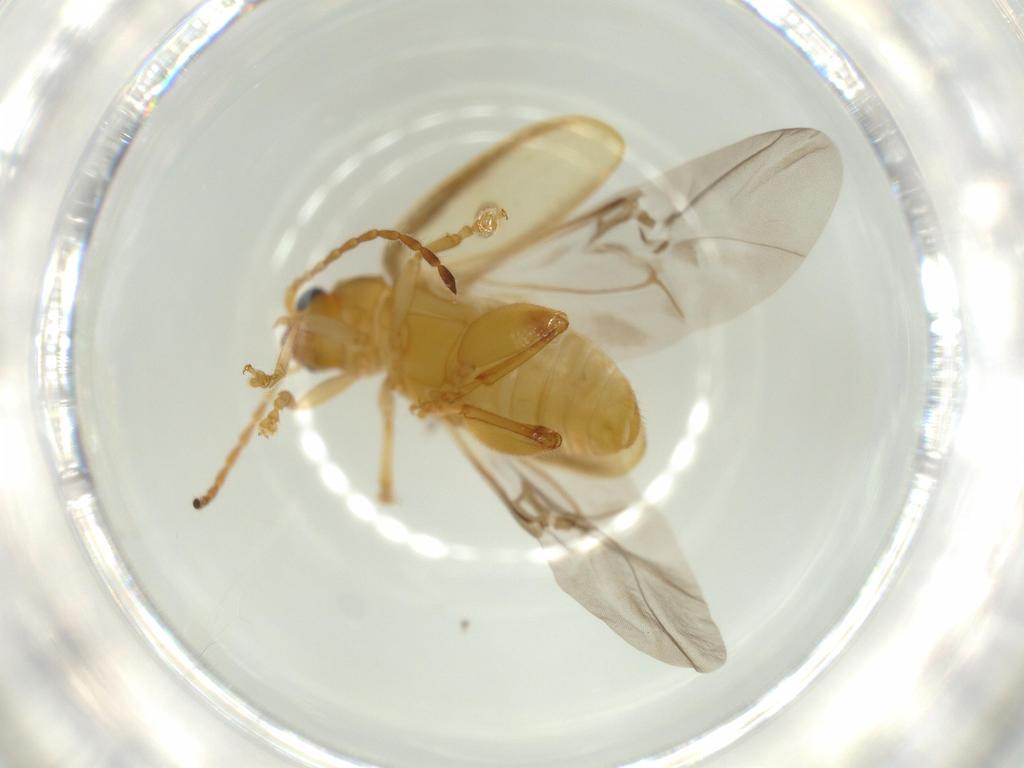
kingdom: Animalia
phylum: Arthropoda
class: Insecta
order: Coleoptera
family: Chrysomelidae
